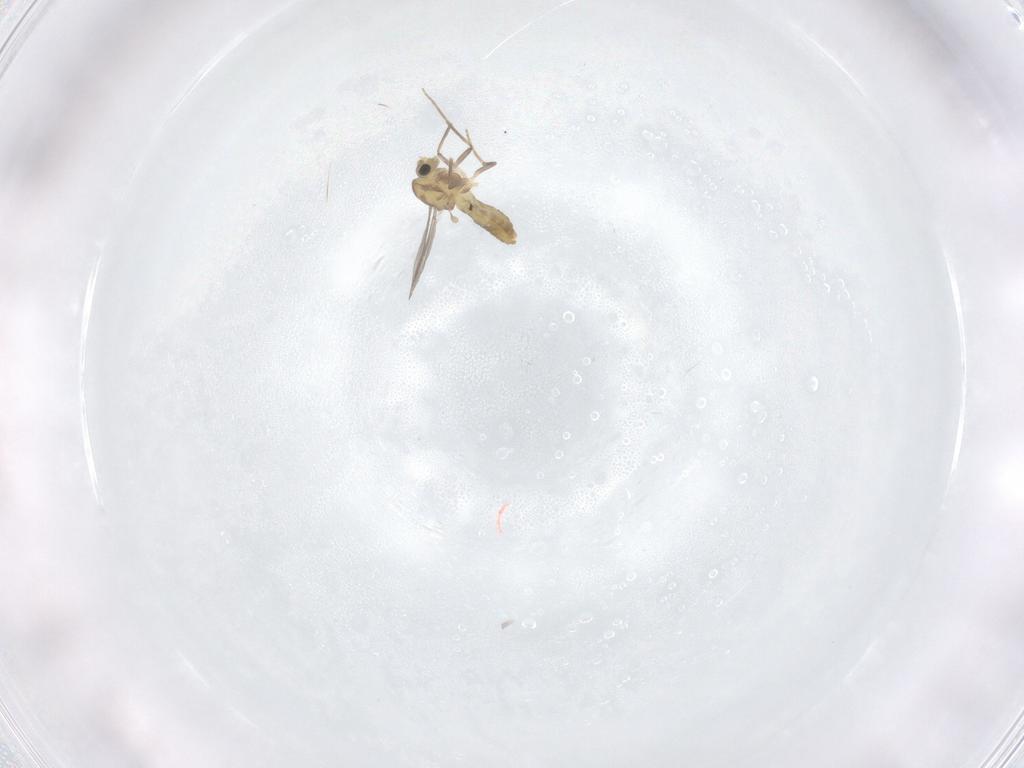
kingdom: Animalia
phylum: Arthropoda
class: Insecta
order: Diptera
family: Chironomidae
